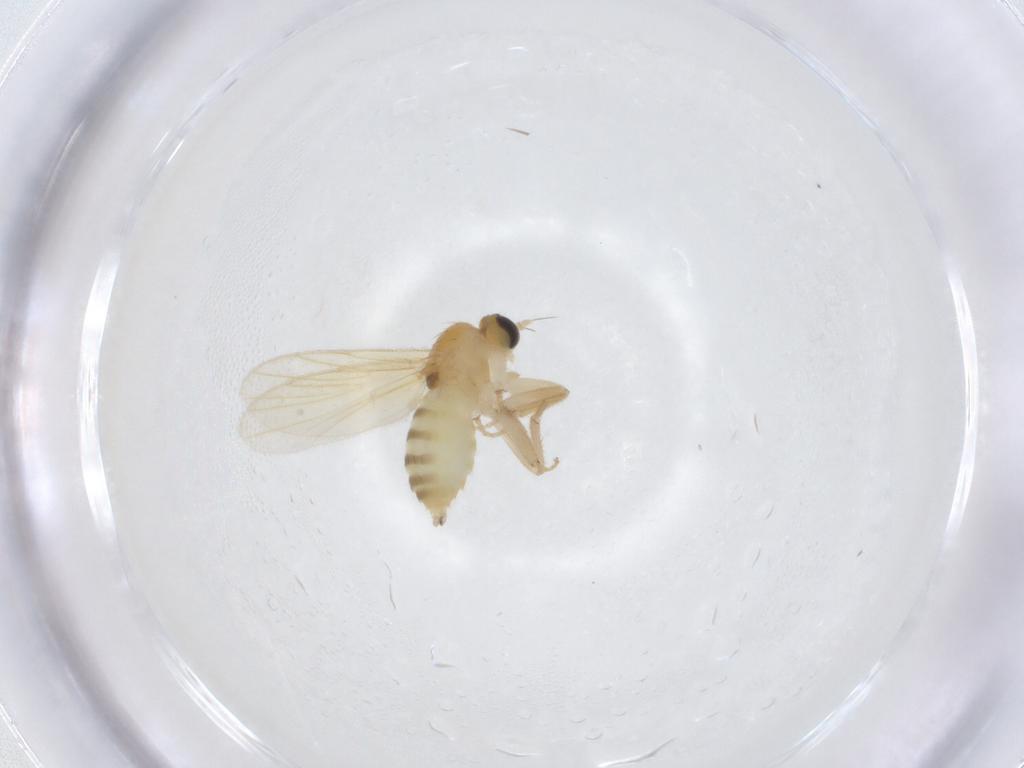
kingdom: Animalia
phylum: Arthropoda
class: Insecta
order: Diptera
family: Hybotidae
